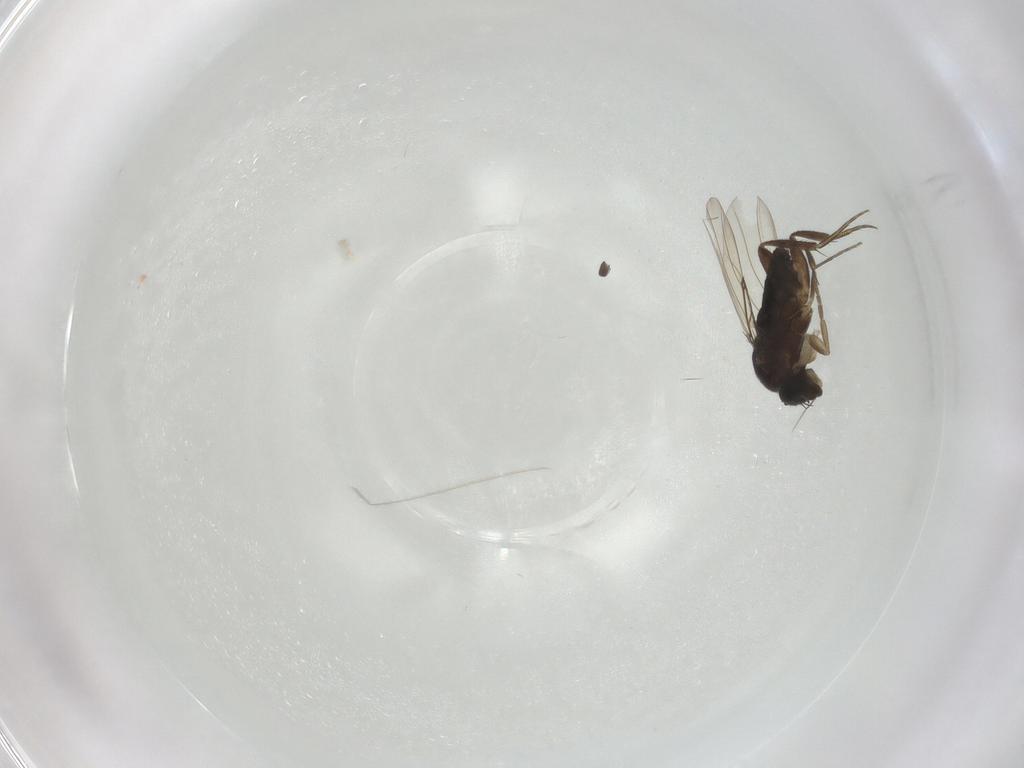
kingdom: Animalia
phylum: Arthropoda
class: Insecta
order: Diptera
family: Phoridae
